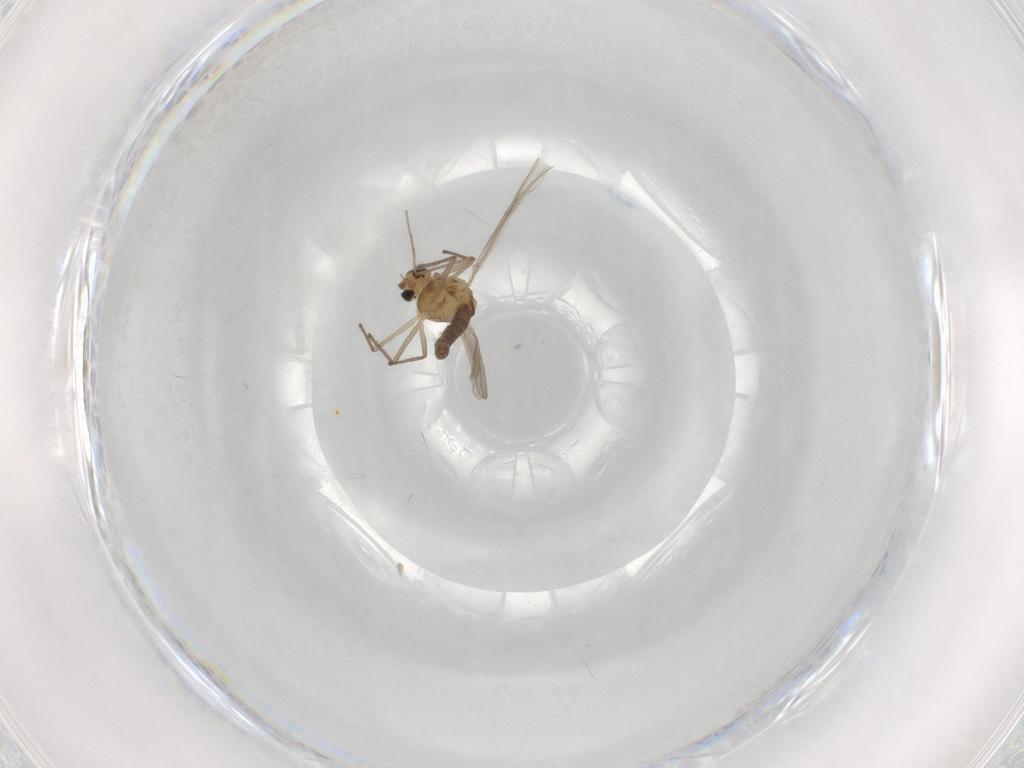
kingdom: Animalia
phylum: Arthropoda
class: Insecta
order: Diptera
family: Chironomidae
